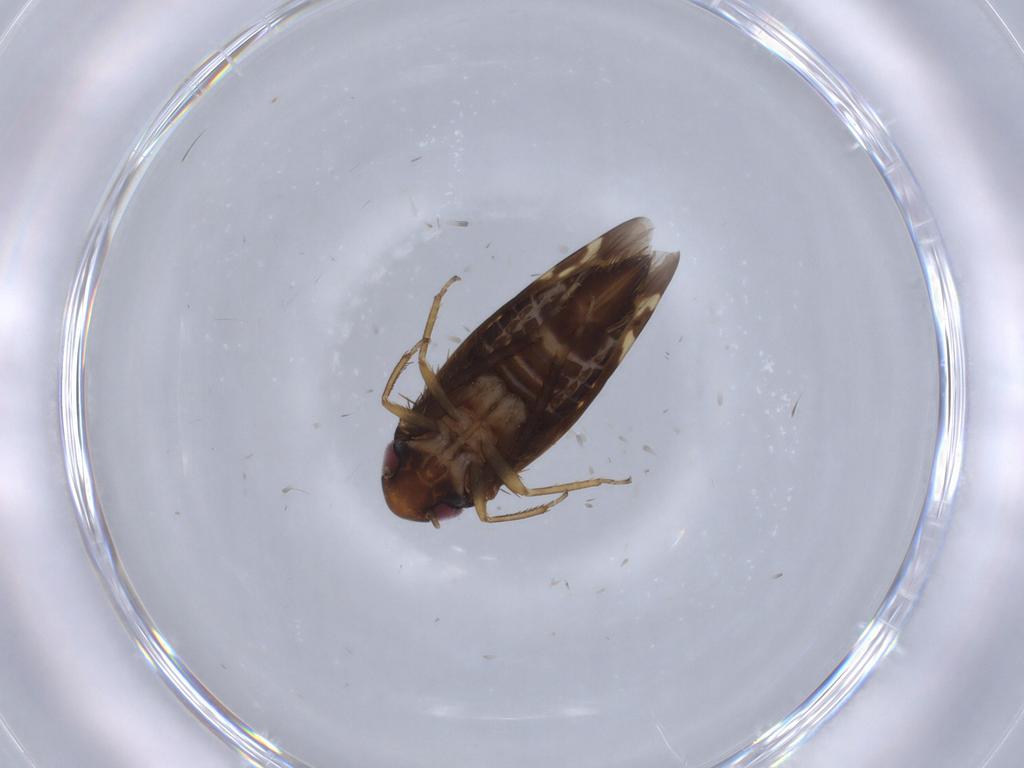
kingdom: Animalia
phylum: Arthropoda
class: Insecta
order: Hemiptera
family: Cicadellidae
